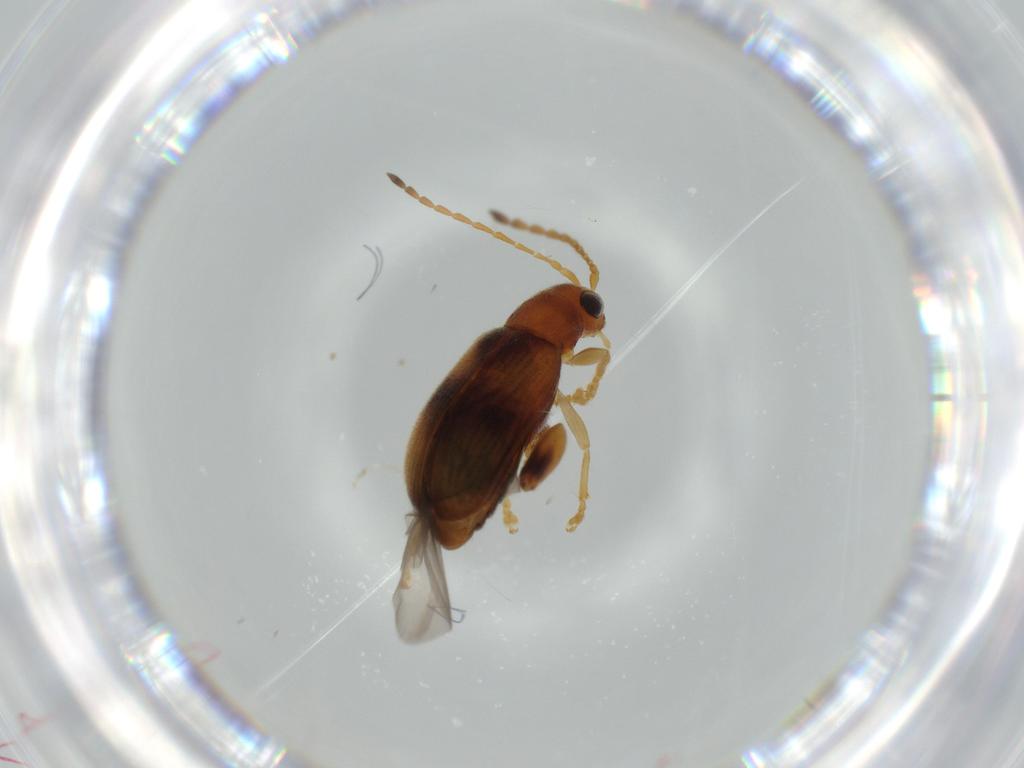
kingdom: Animalia
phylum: Arthropoda
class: Insecta
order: Coleoptera
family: Chrysomelidae
